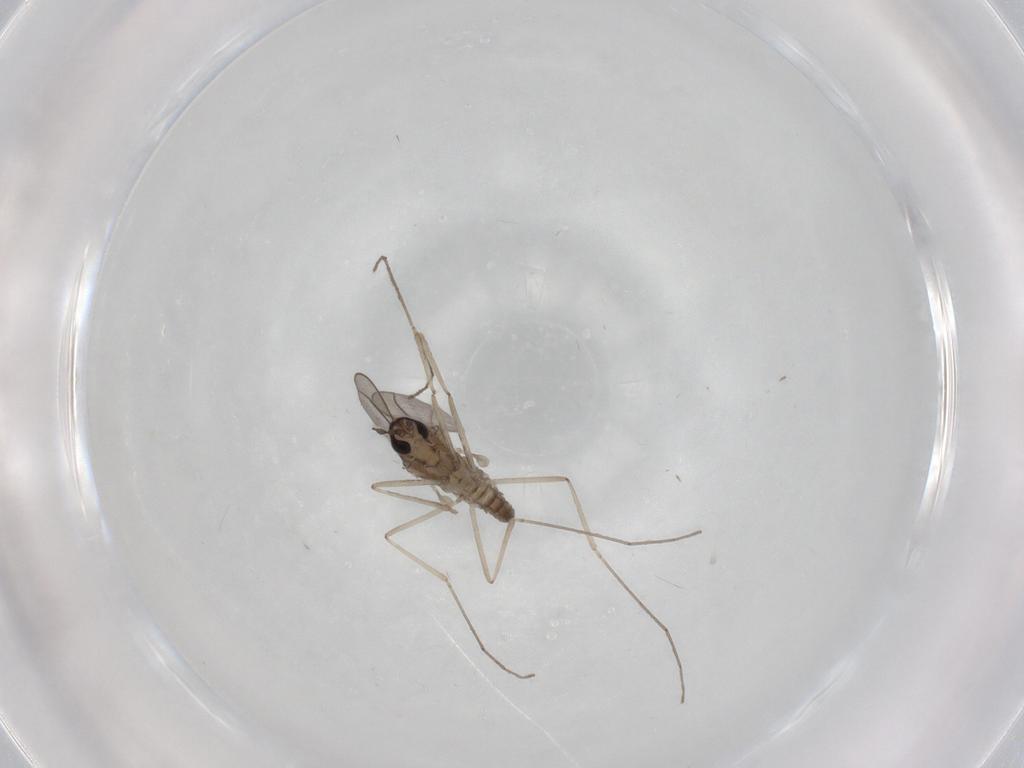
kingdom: Animalia
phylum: Arthropoda
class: Insecta
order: Diptera
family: Cecidomyiidae
